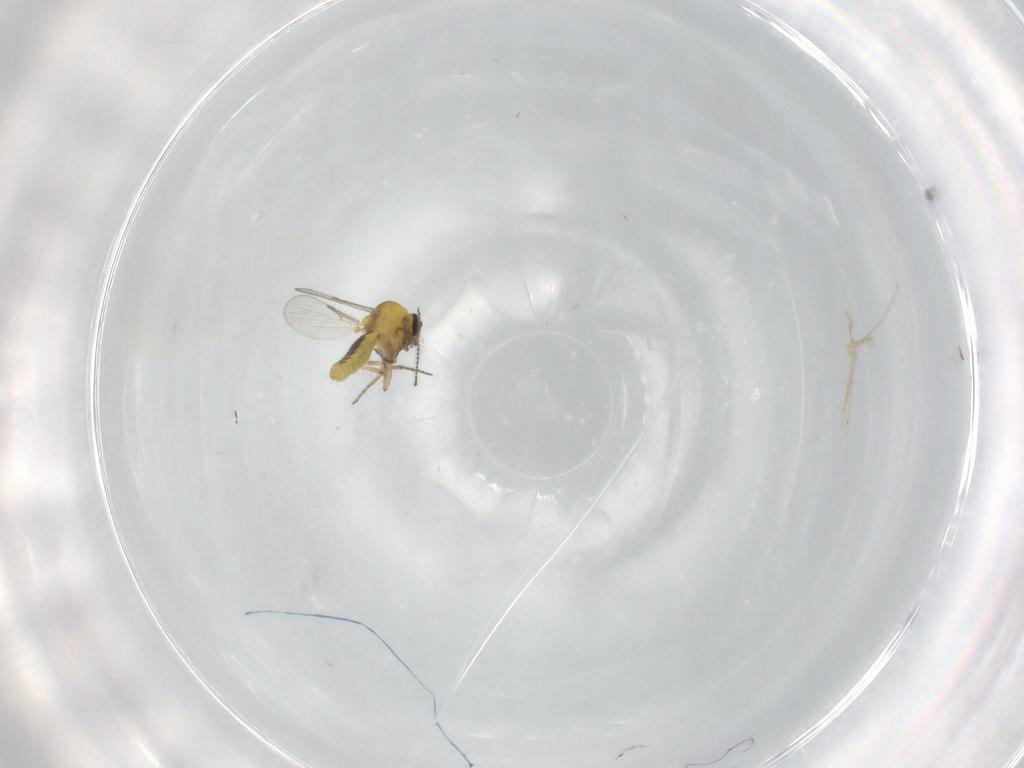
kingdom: Animalia
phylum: Arthropoda
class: Insecta
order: Diptera
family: Ceratopogonidae
